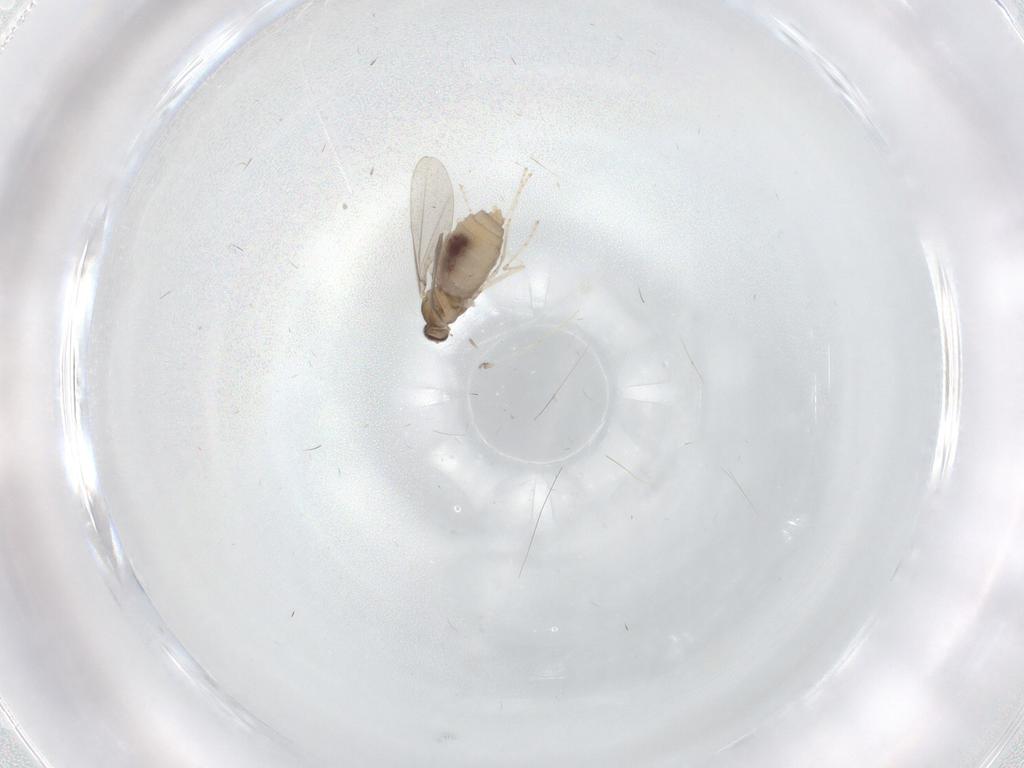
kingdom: Animalia
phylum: Arthropoda
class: Insecta
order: Diptera
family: Cecidomyiidae
